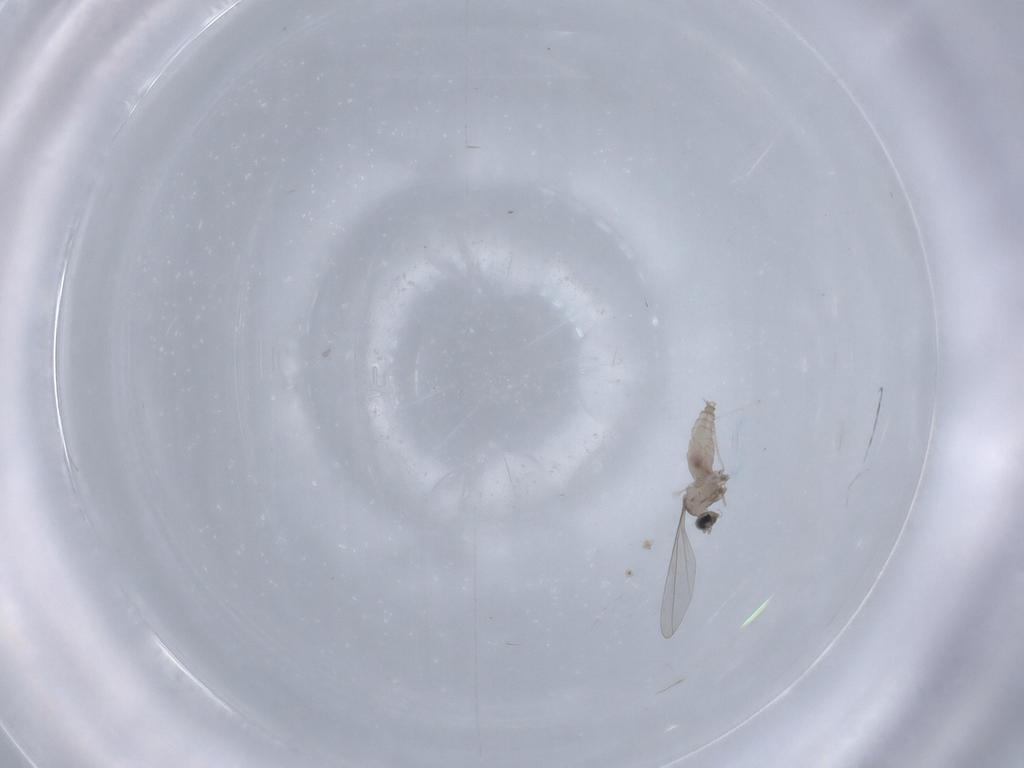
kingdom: Animalia
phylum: Arthropoda
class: Insecta
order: Diptera
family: Cecidomyiidae
